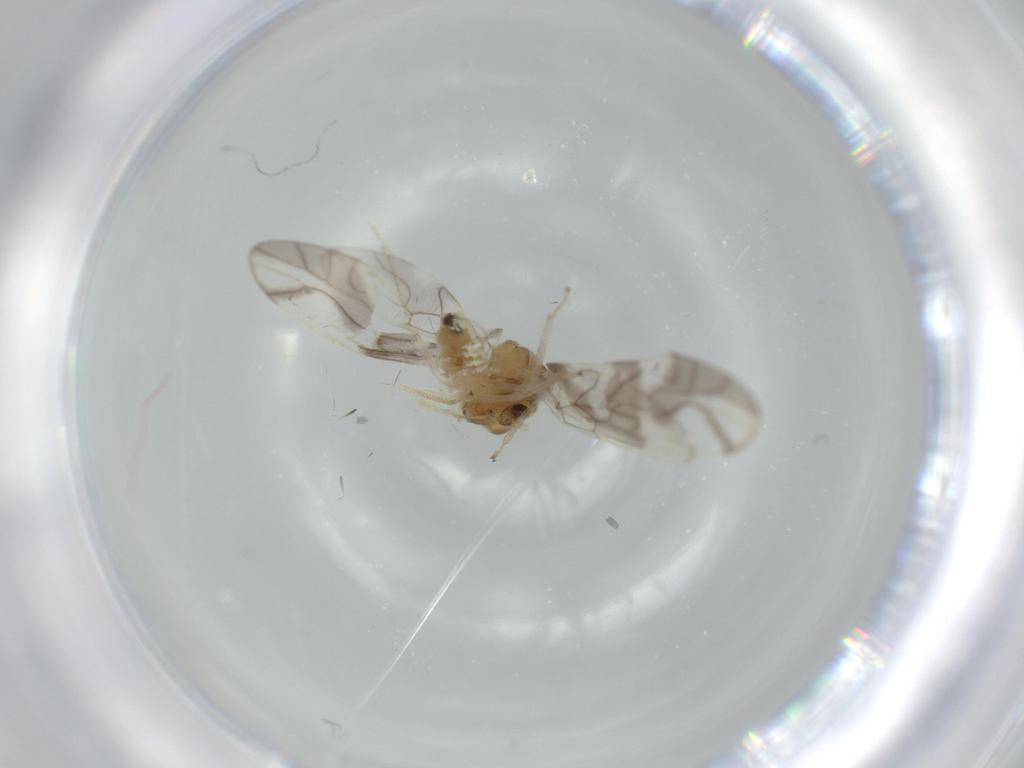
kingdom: Animalia
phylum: Arthropoda
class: Insecta
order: Psocodea
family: Caeciliusidae
